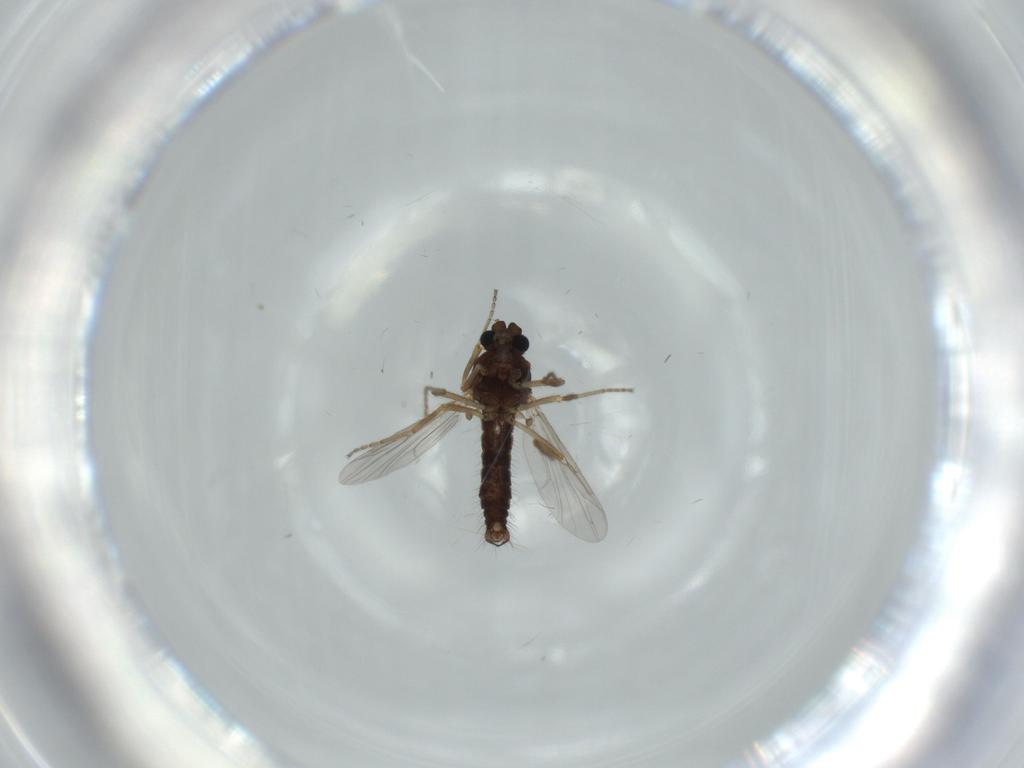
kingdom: Animalia
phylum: Arthropoda
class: Insecta
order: Diptera
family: Ceratopogonidae
